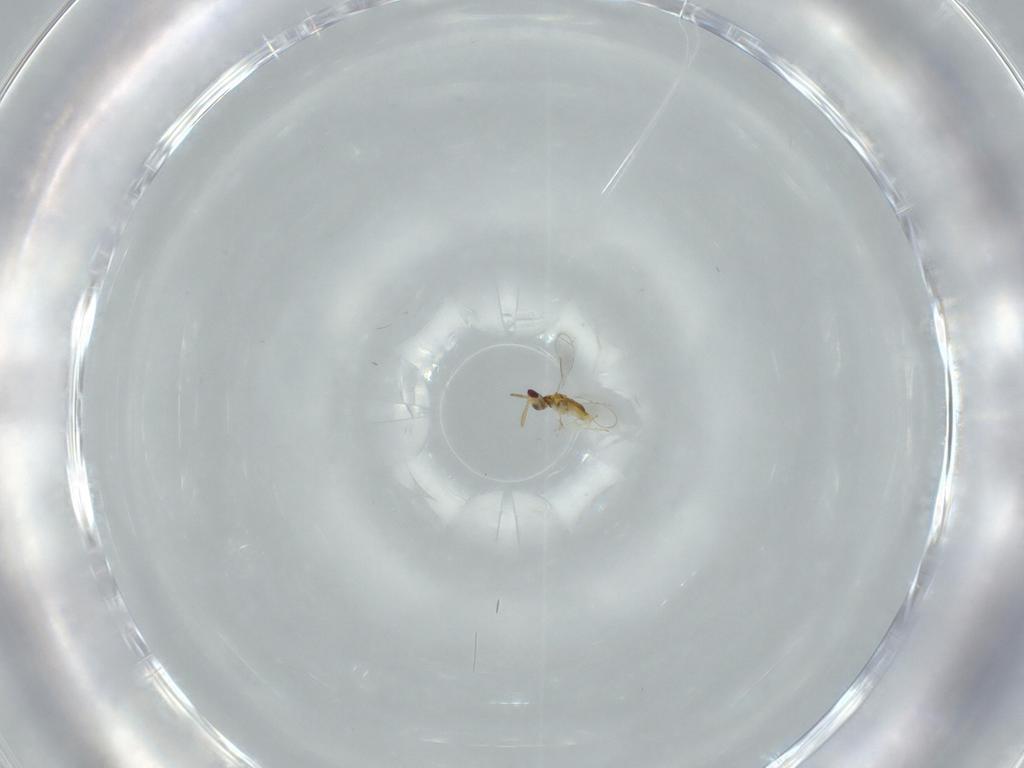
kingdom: Animalia
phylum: Arthropoda
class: Insecta
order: Hymenoptera
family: Aphelinidae
